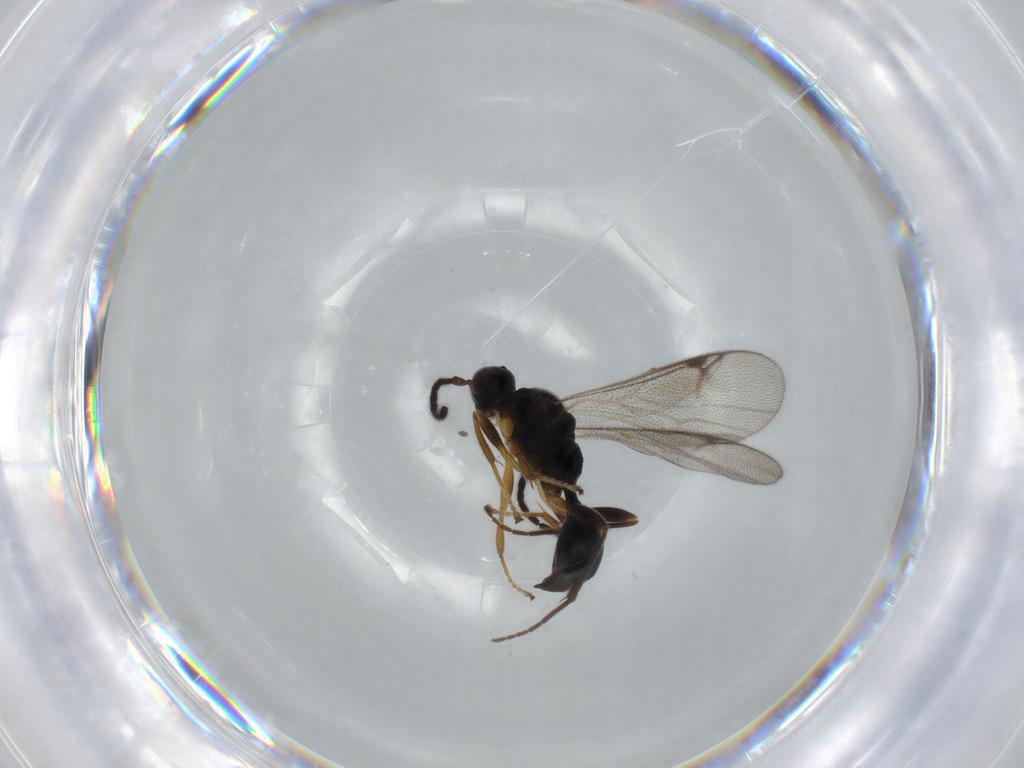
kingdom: Animalia
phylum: Arthropoda
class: Insecta
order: Hymenoptera
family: Proctotrupidae
